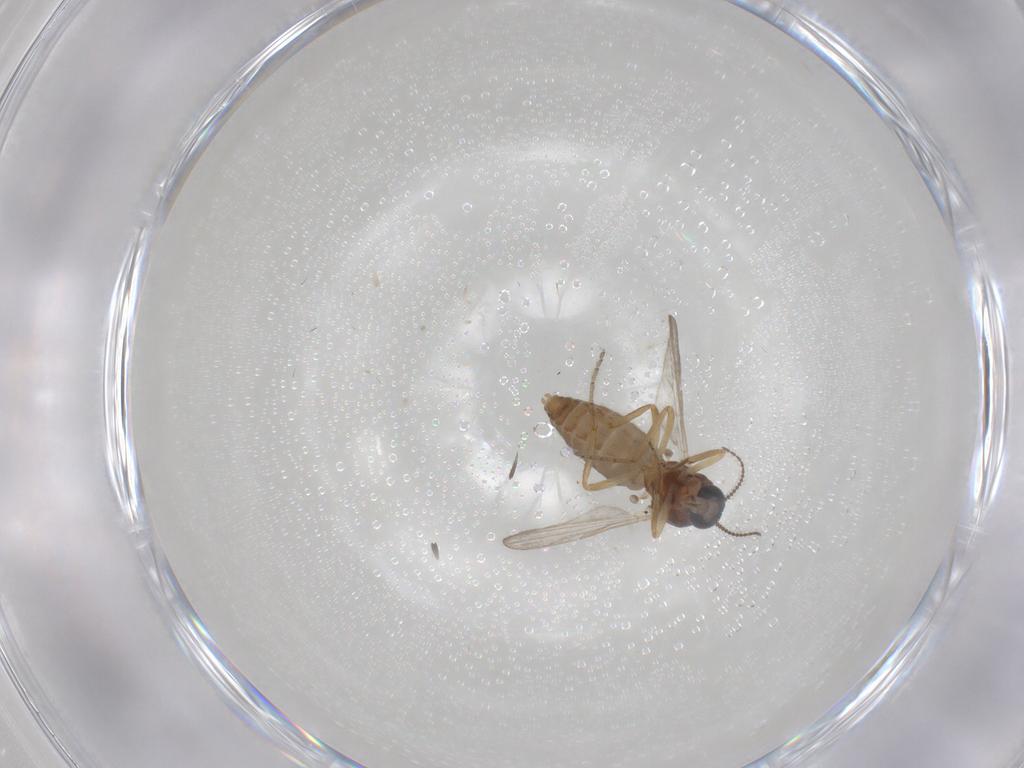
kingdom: Animalia
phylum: Arthropoda
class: Insecta
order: Diptera
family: Ceratopogonidae
